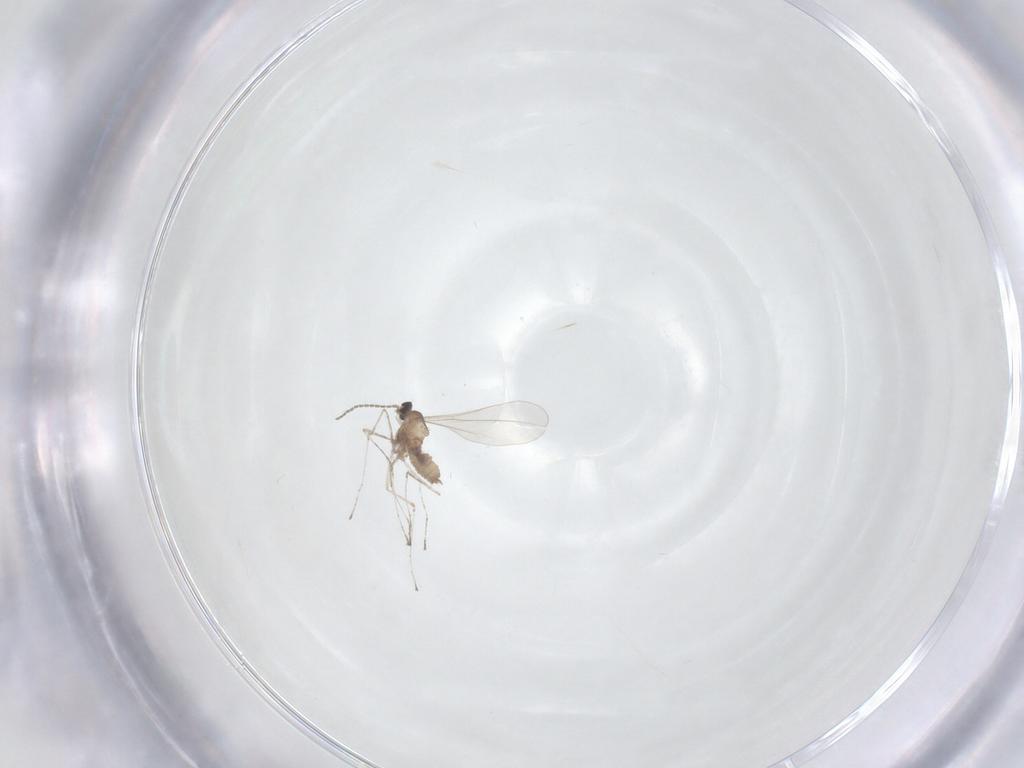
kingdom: Animalia
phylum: Arthropoda
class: Insecta
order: Diptera
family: Cecidomyiidae
